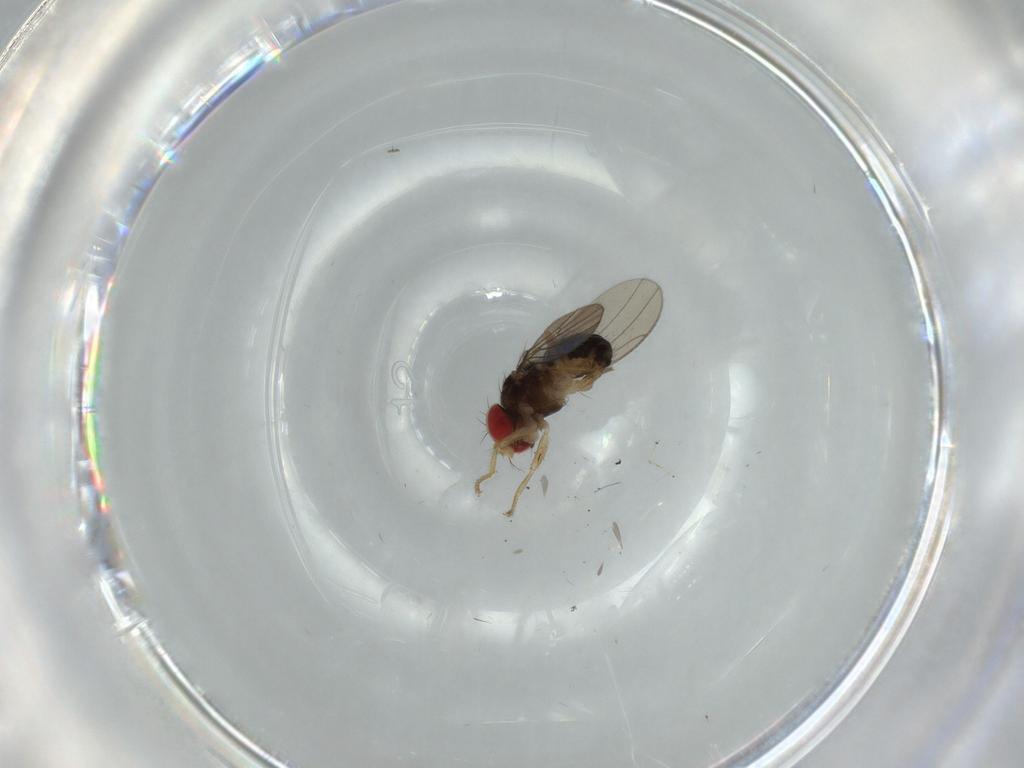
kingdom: Animalia
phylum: Arthropoda
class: Insecta
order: Diptera
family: Drosophilidae
